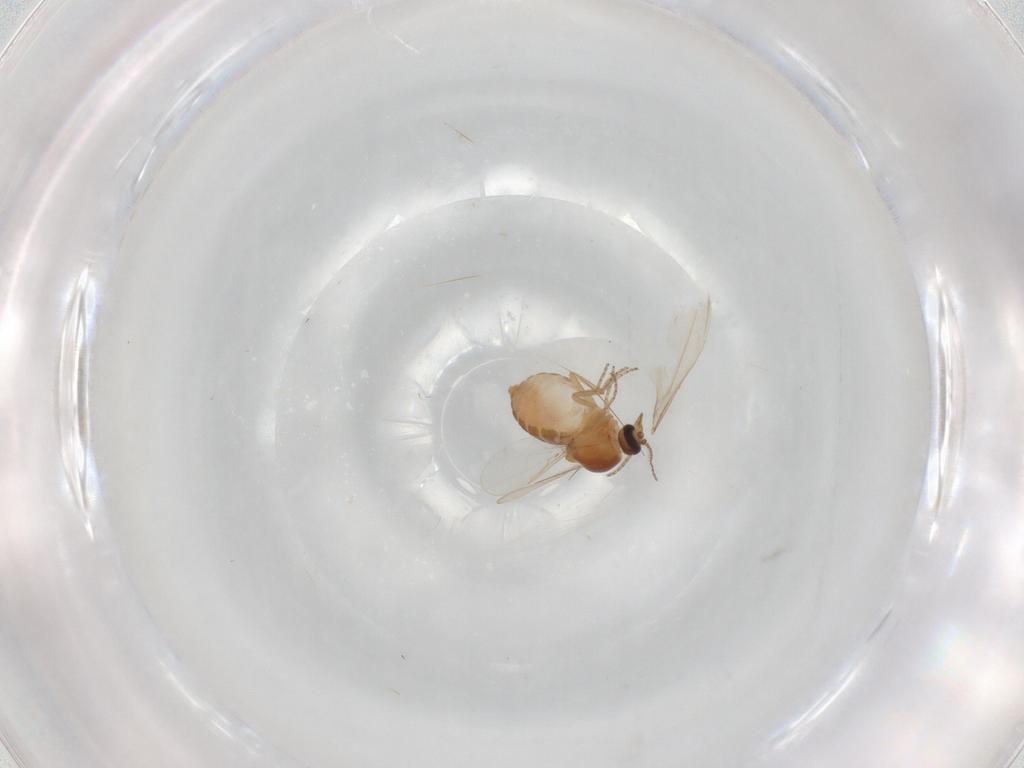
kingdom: Animalia
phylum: Arthropoda
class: Insecta
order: Diptera
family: Ceratopogonidae
